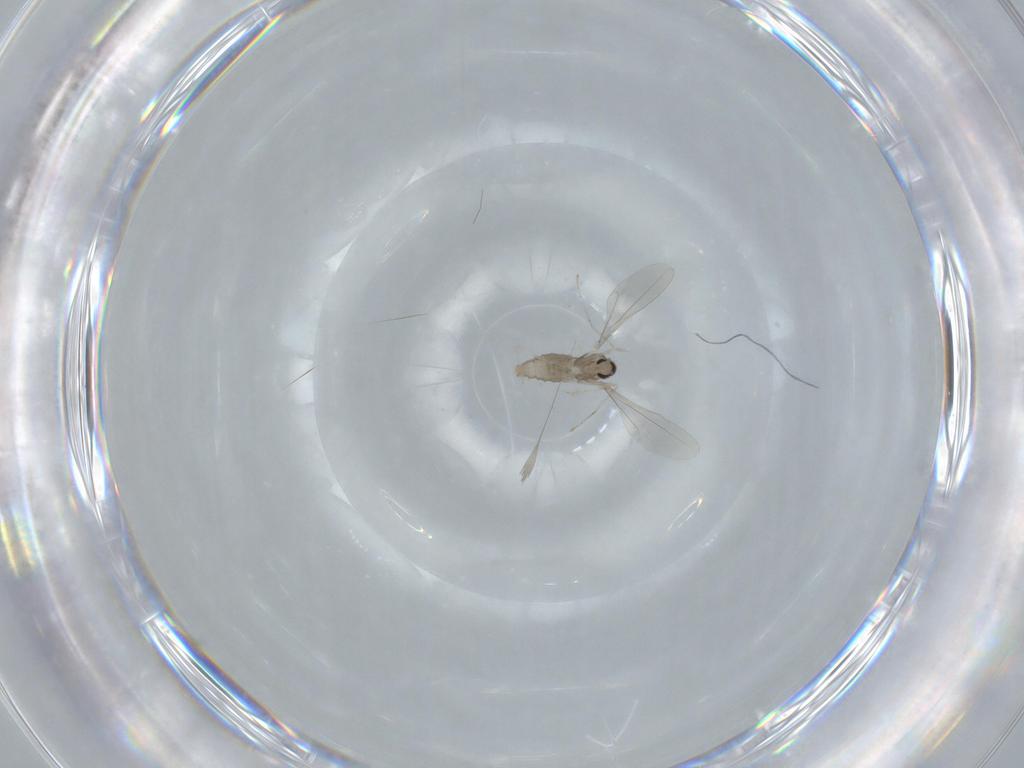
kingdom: Animalia
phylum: Arthropoda
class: Insecta
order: Diptera
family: Cecidomyiidae
